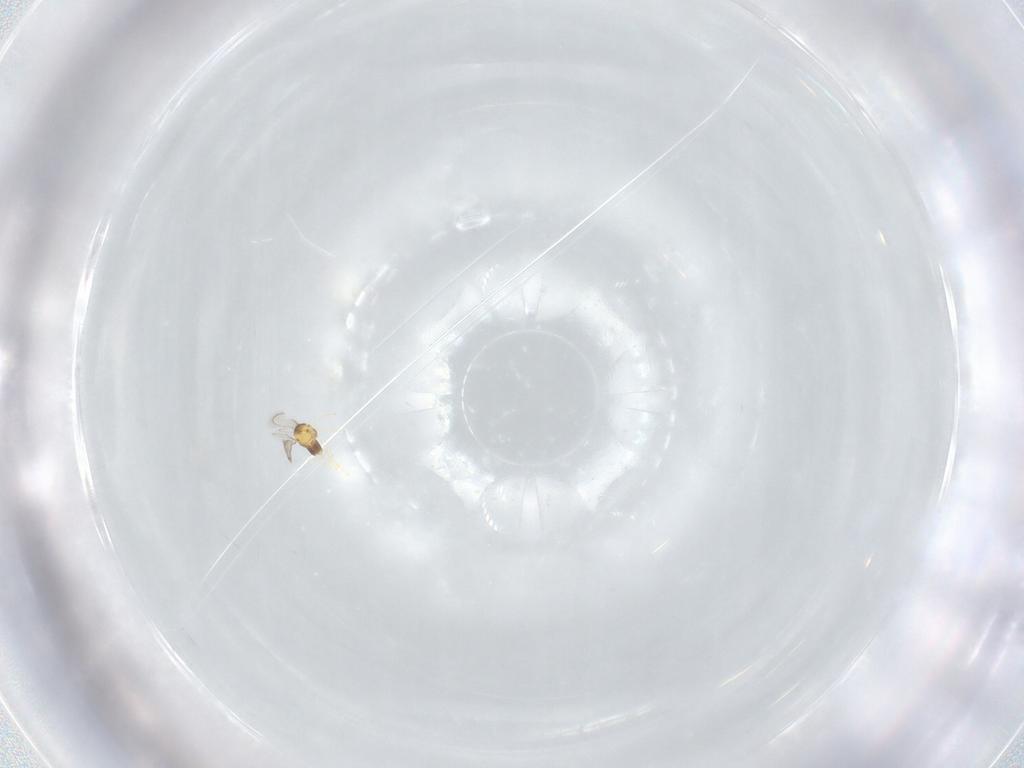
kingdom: Animalia
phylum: Arthropoda
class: Insecta
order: Hymenoptera
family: Aphelinidae
